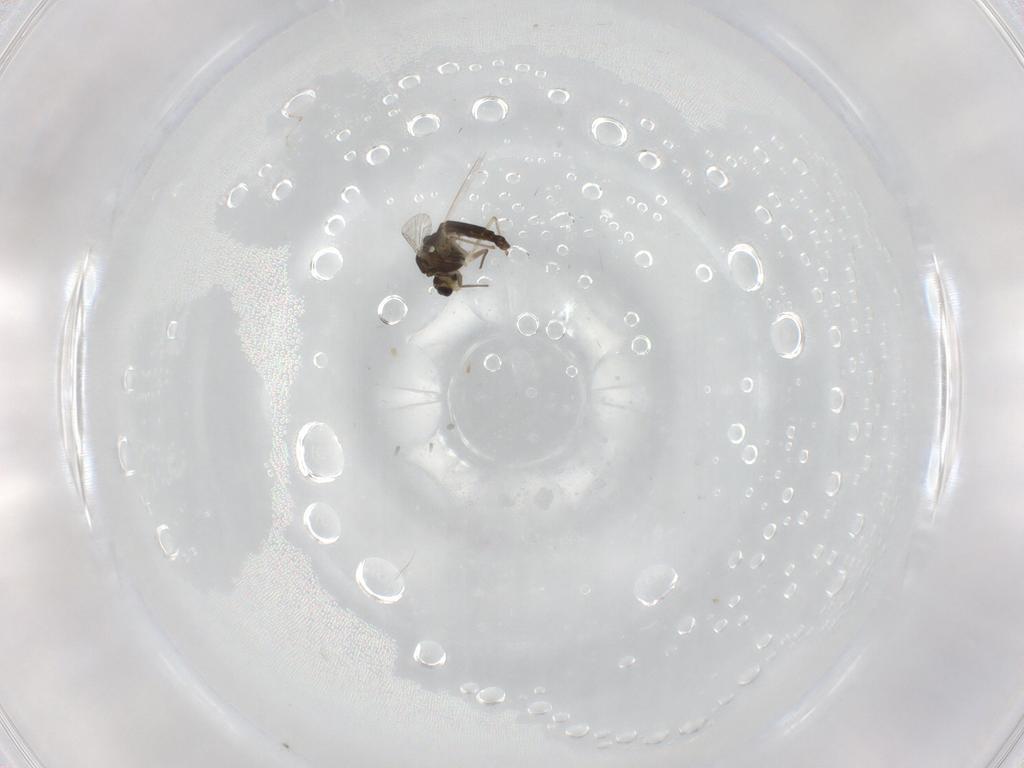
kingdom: Animalia
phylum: Arthropoda
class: Insecta
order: Diptera
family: Chironomidae
